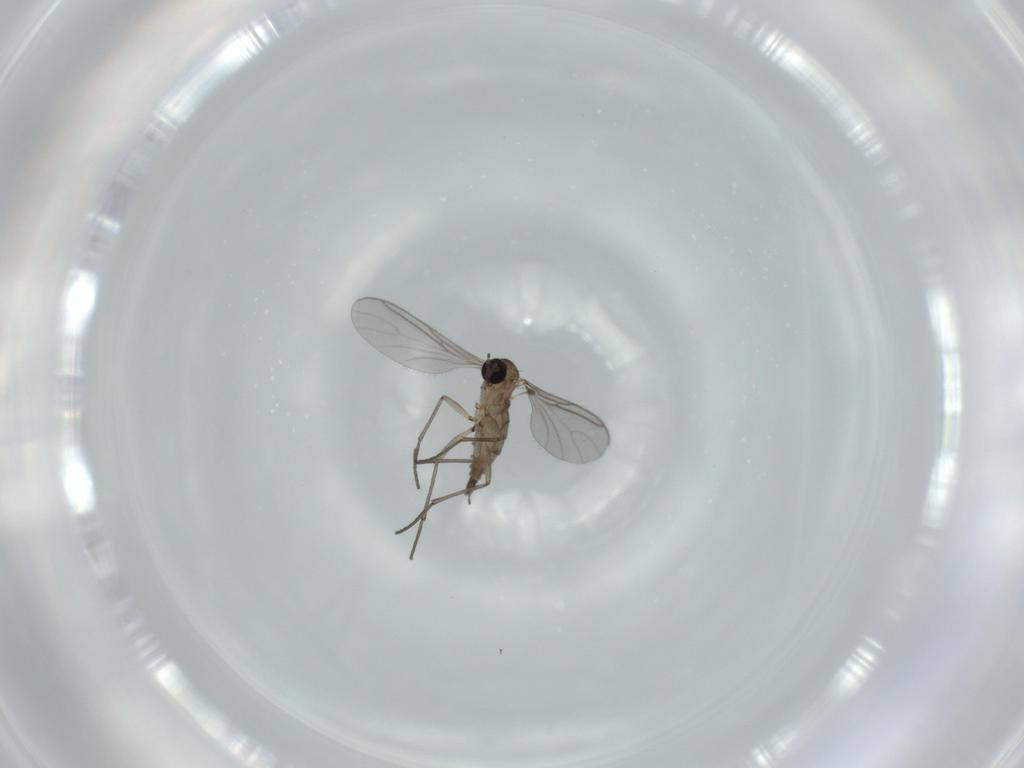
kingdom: Animalia
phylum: Arthropoda
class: Insecta
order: Diptera
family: Sciaridae
